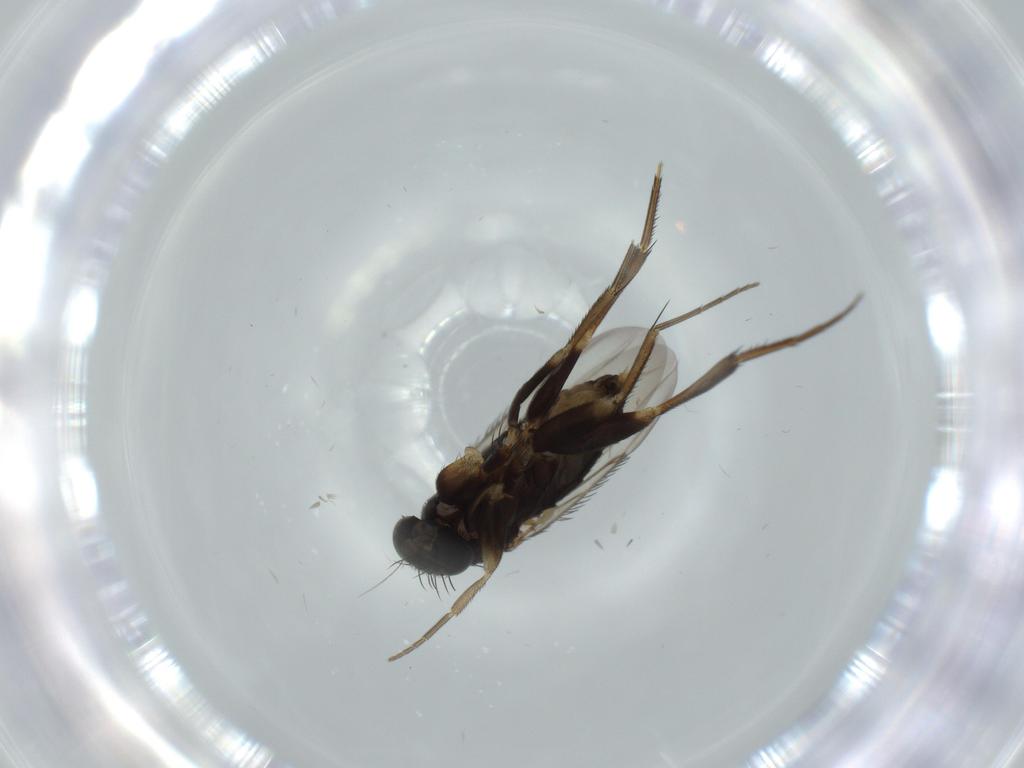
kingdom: Animalia
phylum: Arthropoda
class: Insecta
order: Diptera
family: Phoridae
